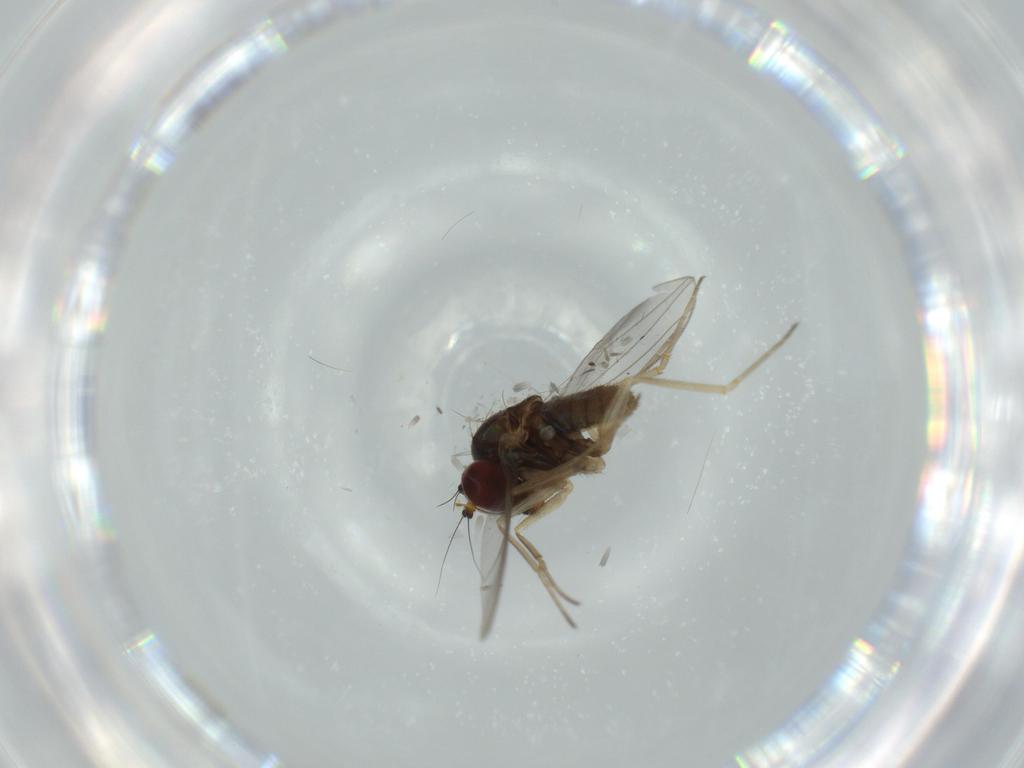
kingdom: Animalia
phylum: Arthropoda
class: Insecta
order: Diptera
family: Dolichopodidae
